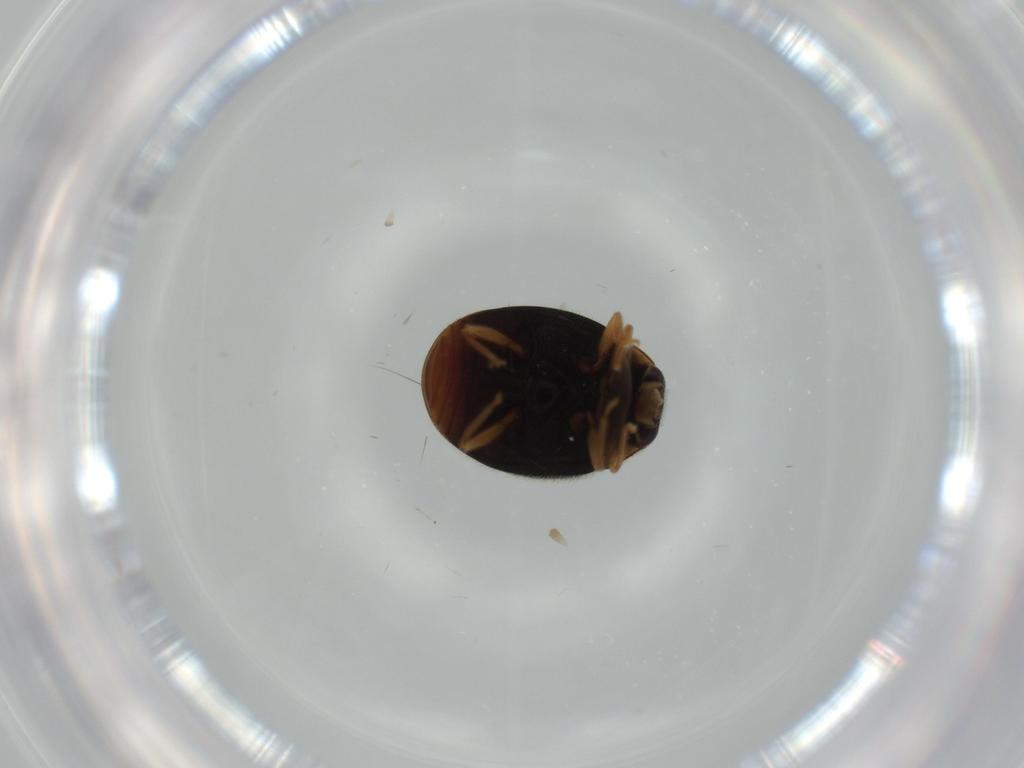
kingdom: Animalia
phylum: Arthropoda
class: Insecta
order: Coleoptera
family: Coccinellidae
